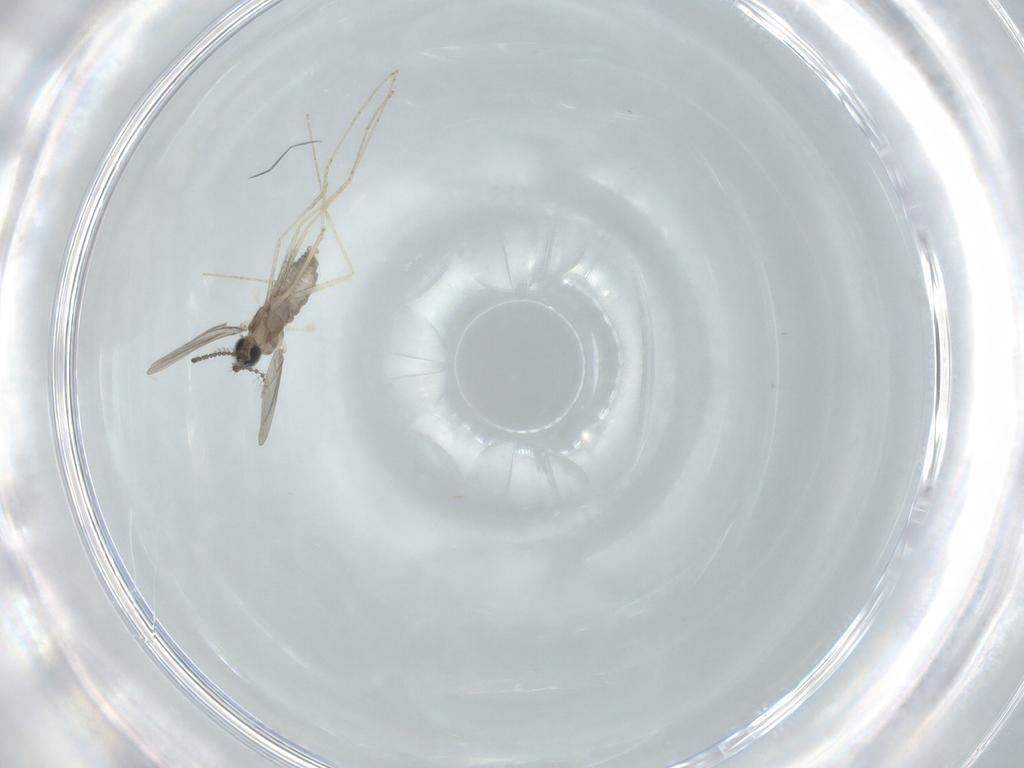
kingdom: Animalia
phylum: Arthropoda
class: Insecta
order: Diptera
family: Cecidomyiidae
